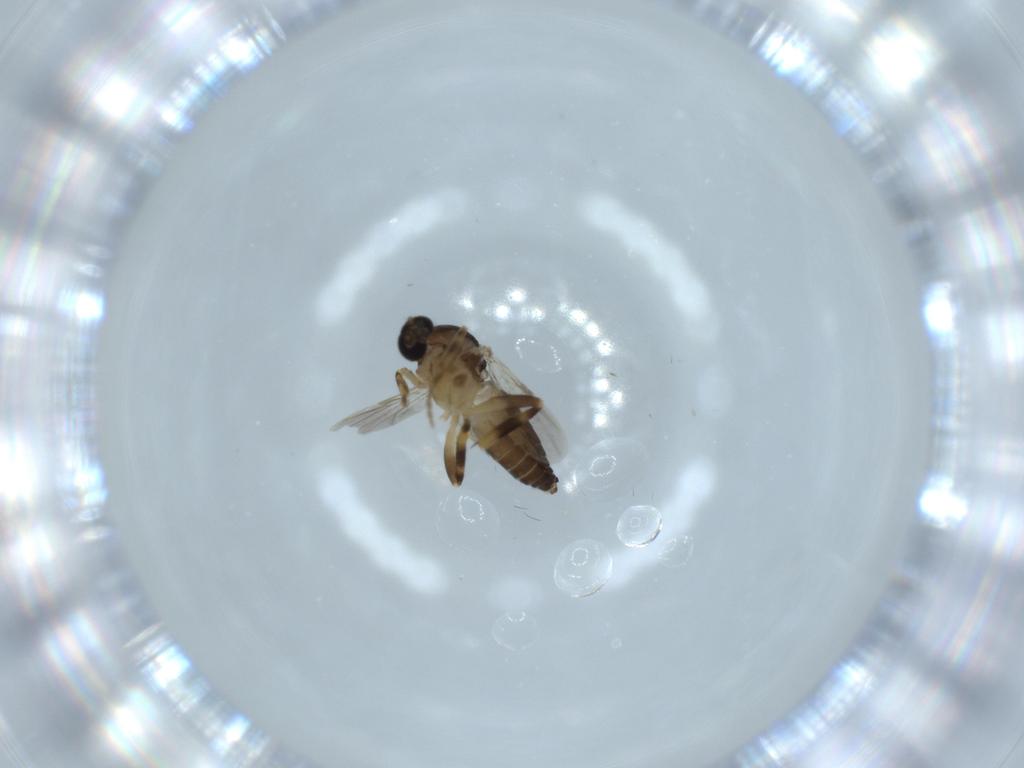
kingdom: Animalia
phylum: Arthropoda
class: Insecta
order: Diptera
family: Ceratopogonidae
